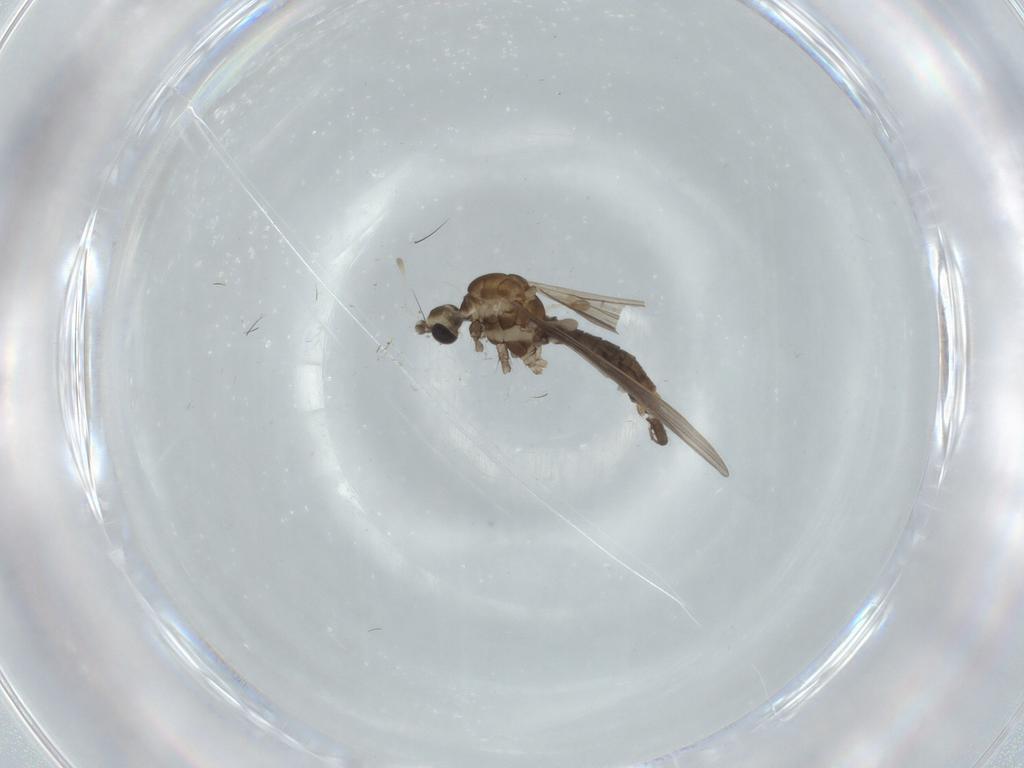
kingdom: Animalia
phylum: Arthropoda
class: Insecta
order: Diptera
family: Limoniidae
